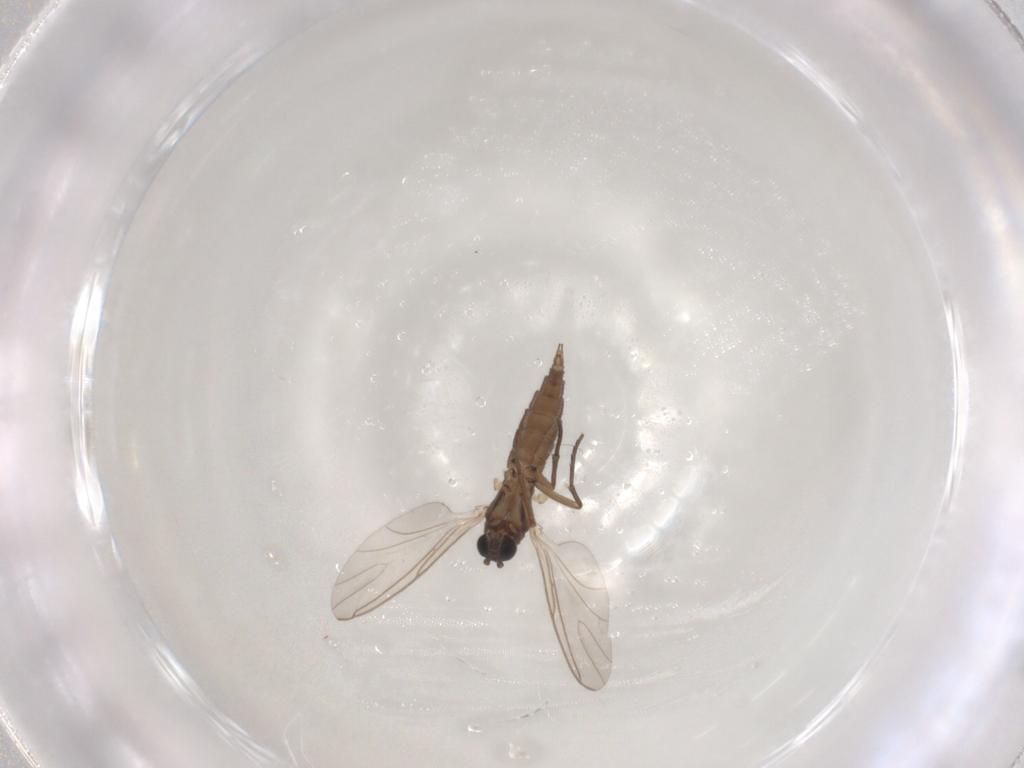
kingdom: Animalia
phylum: Arthropoda
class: Insecta
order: Diptera
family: Sciaridae
